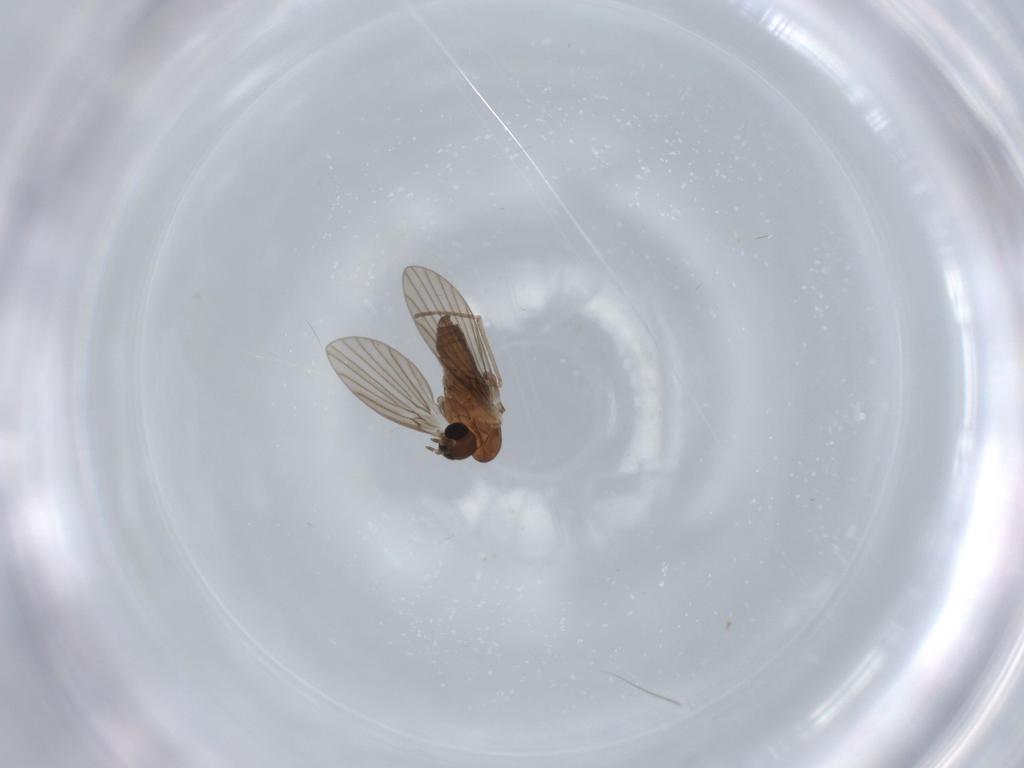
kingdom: Animalia
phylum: Arthropoda
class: Insecta
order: Diptera
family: Psychodidae
